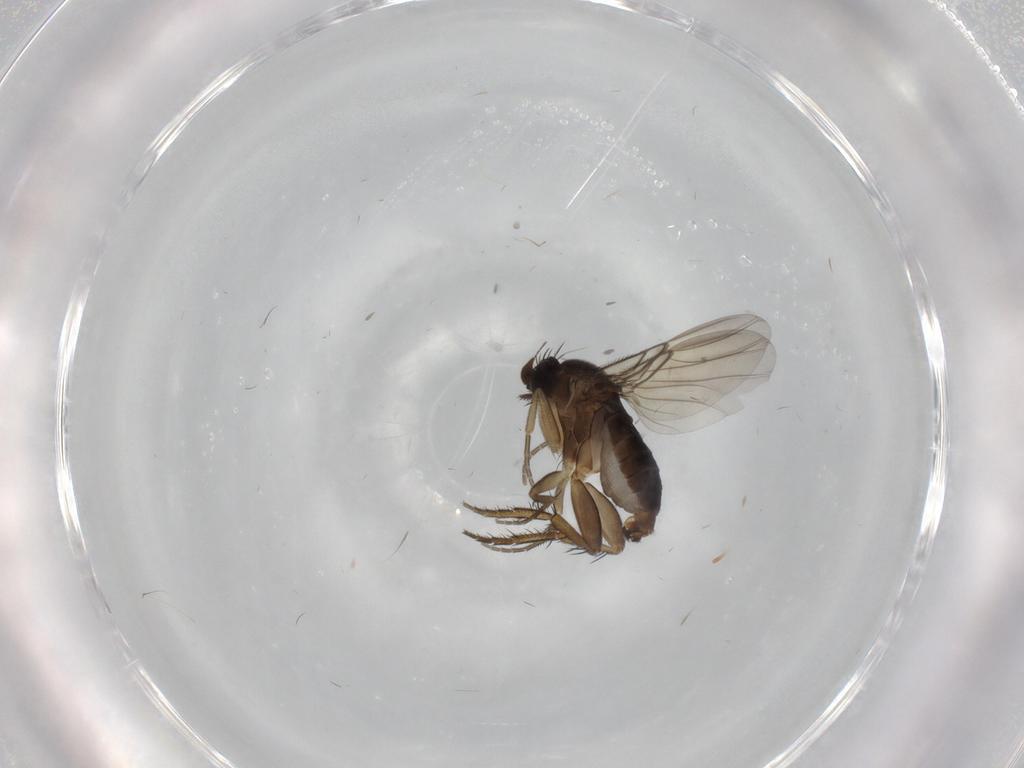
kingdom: Animalia
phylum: Arthropoda
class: Insecta
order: Diptera
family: Phoridae
